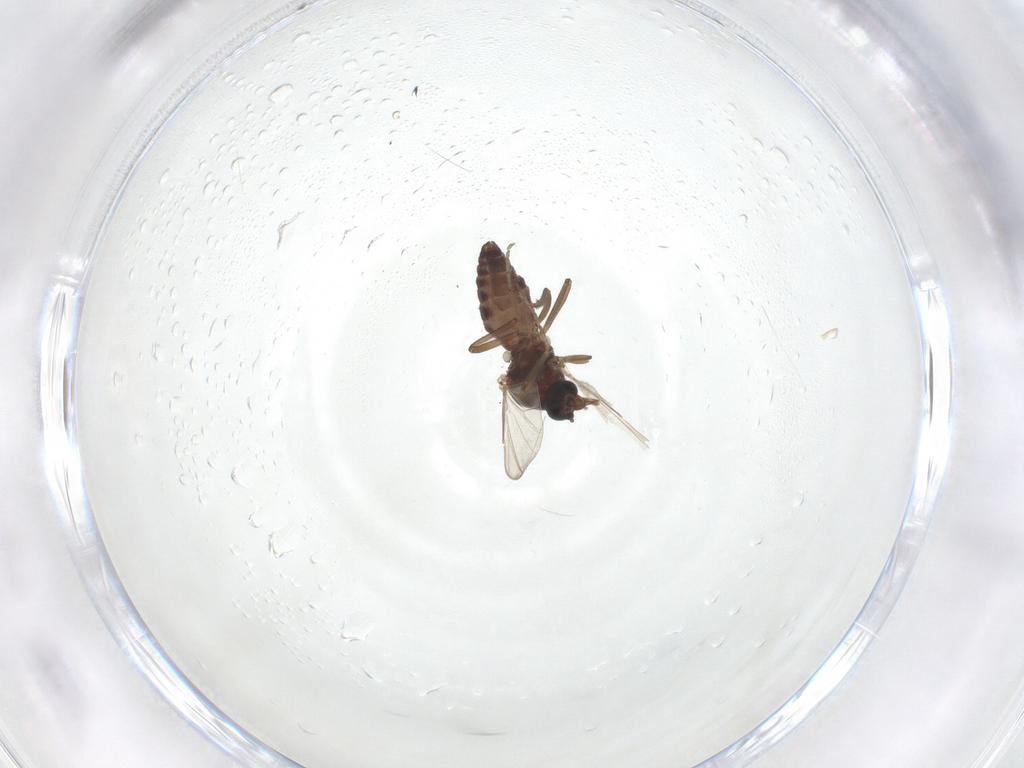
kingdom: Animalia
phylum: Arthropoda
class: Insecta
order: Diptera
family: Ceratopogonidae
